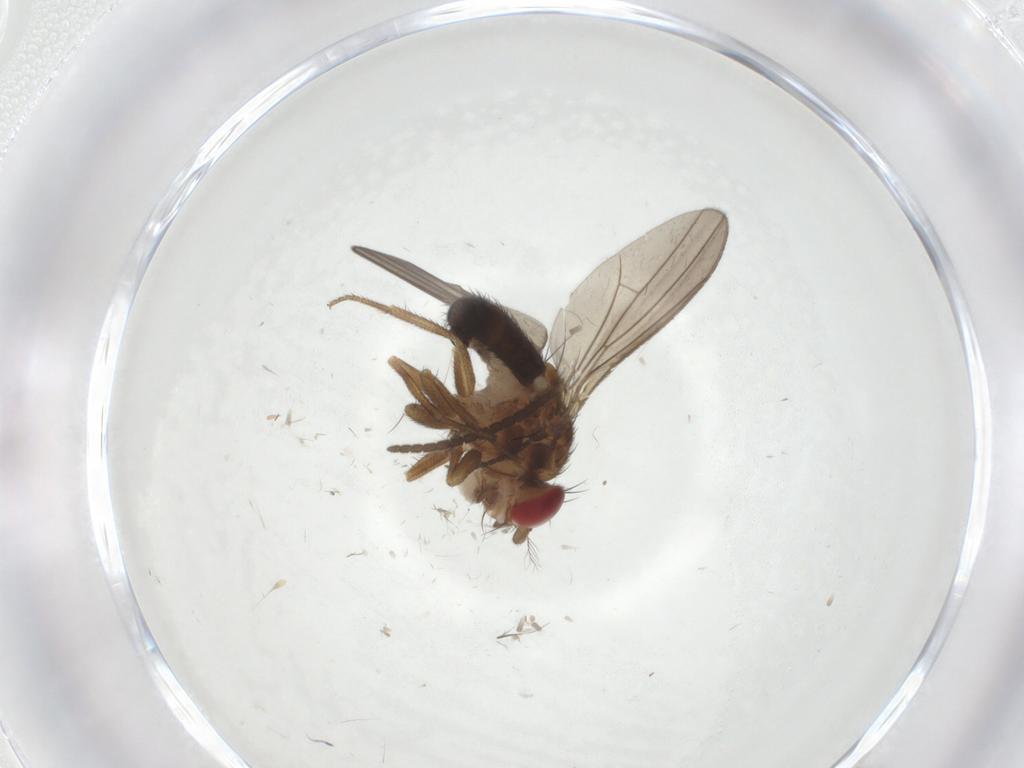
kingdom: Animalia
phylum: Arthropoda
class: Insecta
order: Diptera
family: Drosophilidae
